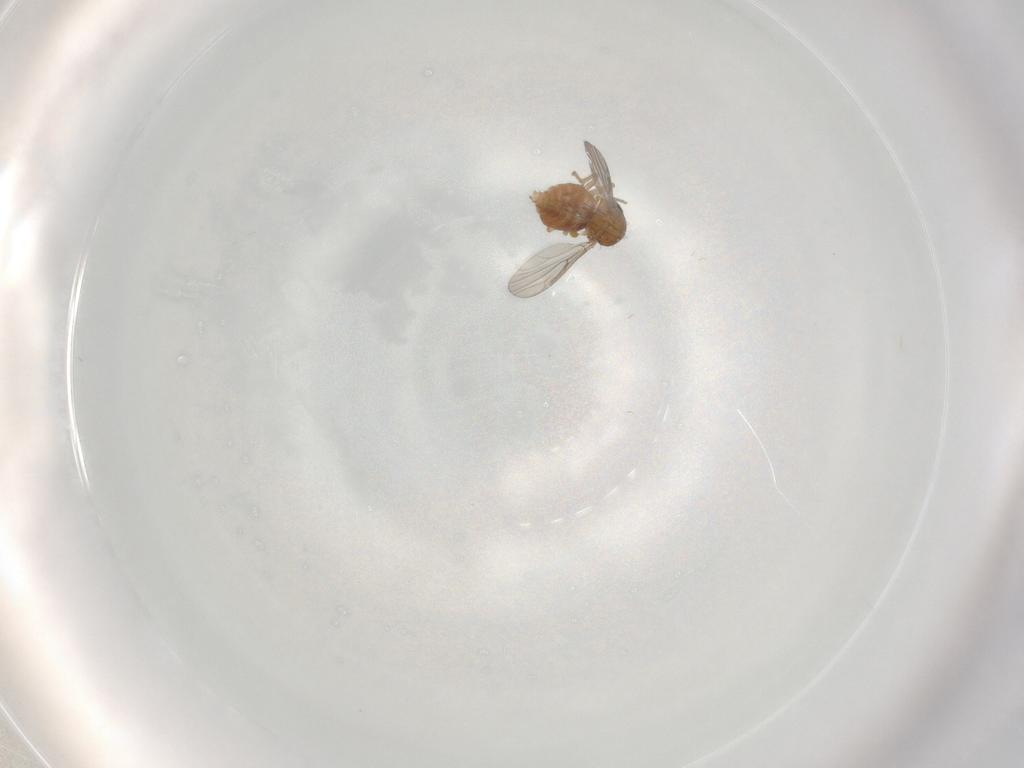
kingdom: Animalia
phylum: Arthropoda
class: Insecta
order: Diptera
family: Ceratopogonidae
